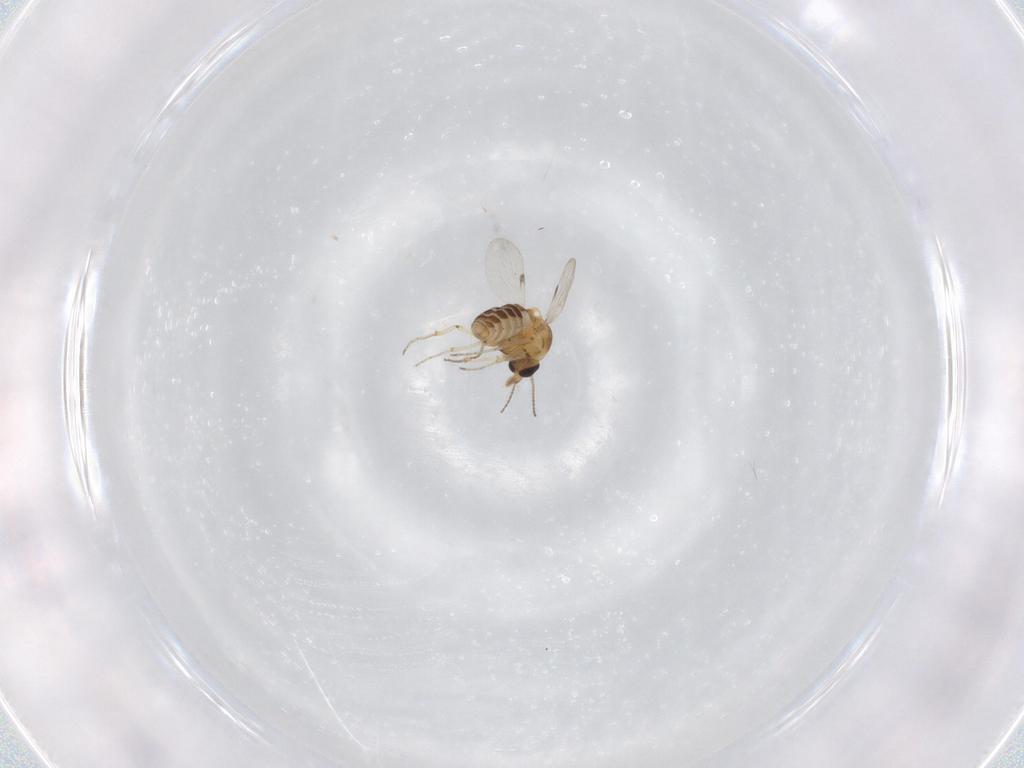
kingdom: Animalia
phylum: Arthropoda
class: Insecta
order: Diptera
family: Ceratopogonidae
